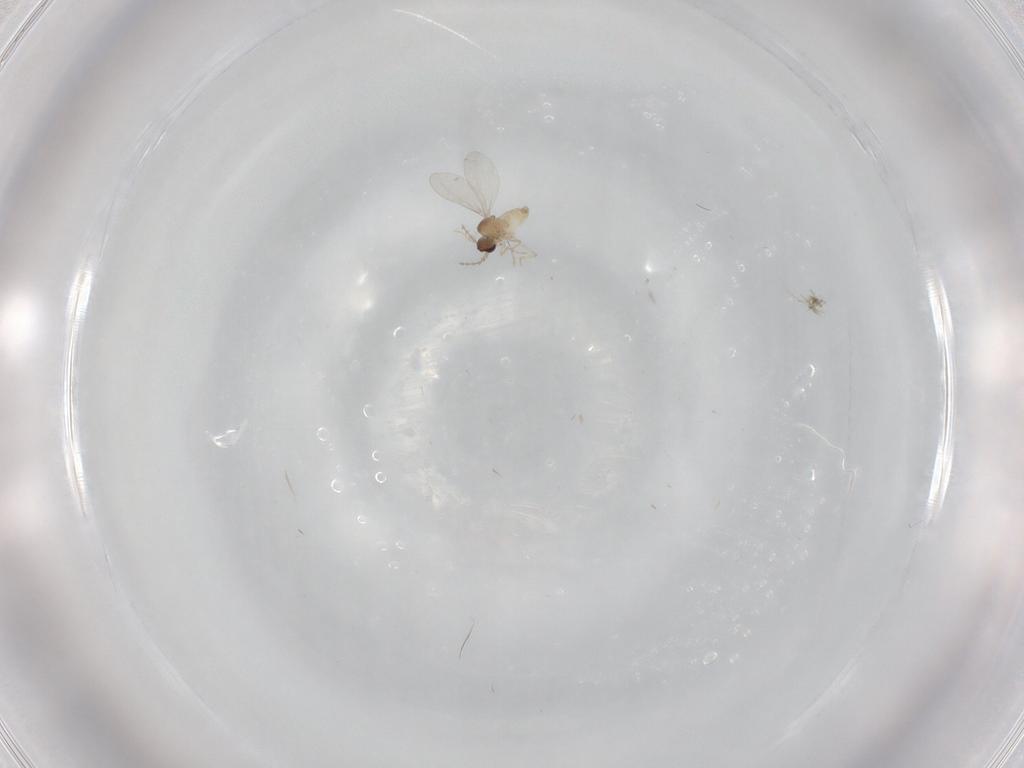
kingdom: Animalia
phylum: Arthropoda
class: Insecta
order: Diptera
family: Ceratopogonidae
